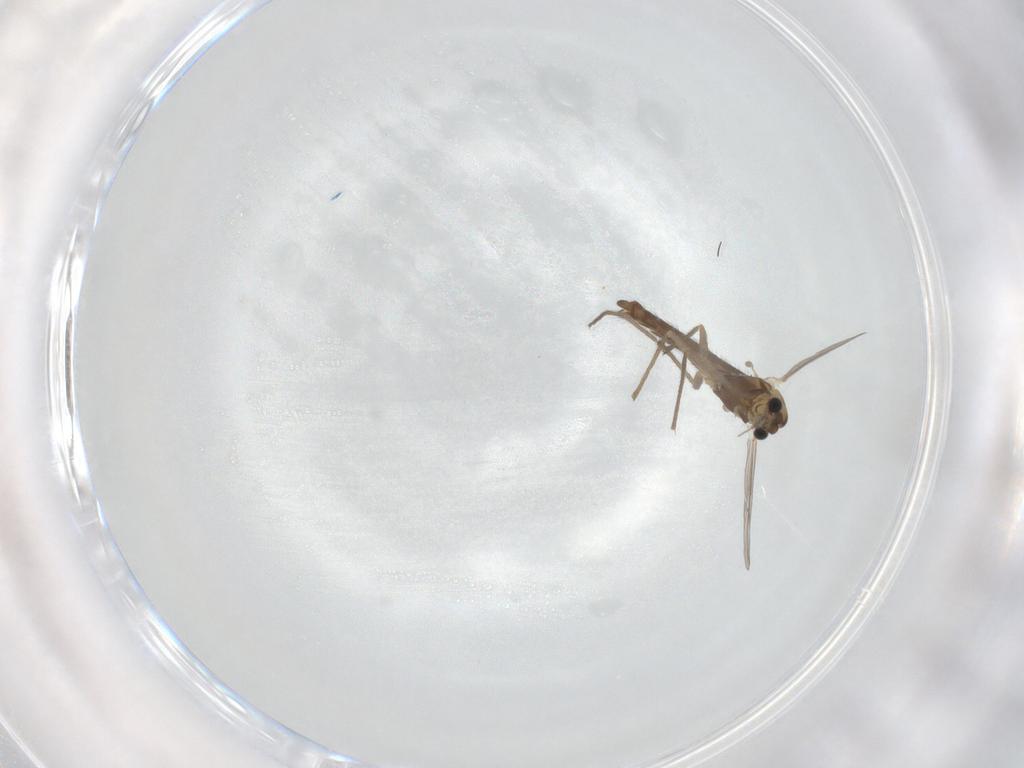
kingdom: Animalia
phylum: Arthropoda
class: Insecta
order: Diptera
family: Chironomidae
